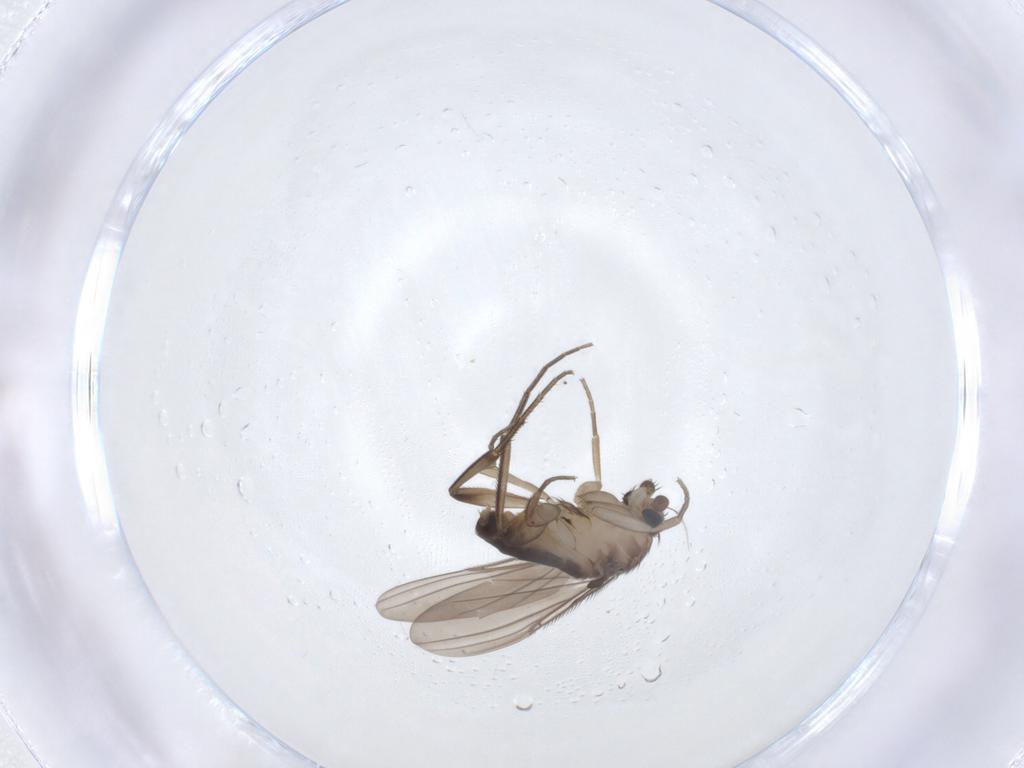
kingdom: Animalia
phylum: Arthropoda
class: Insecta
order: Diptera
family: Phoridae
